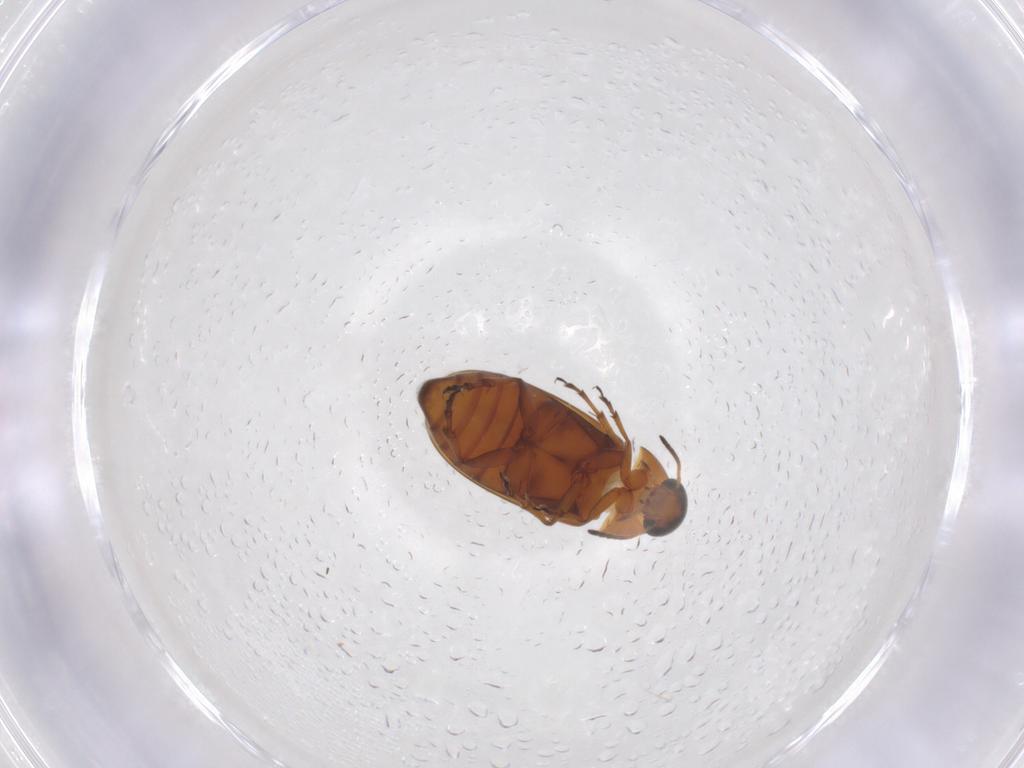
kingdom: Animalia
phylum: Arthropoda
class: Insecta
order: Coleoptera
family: Scraptiidae
